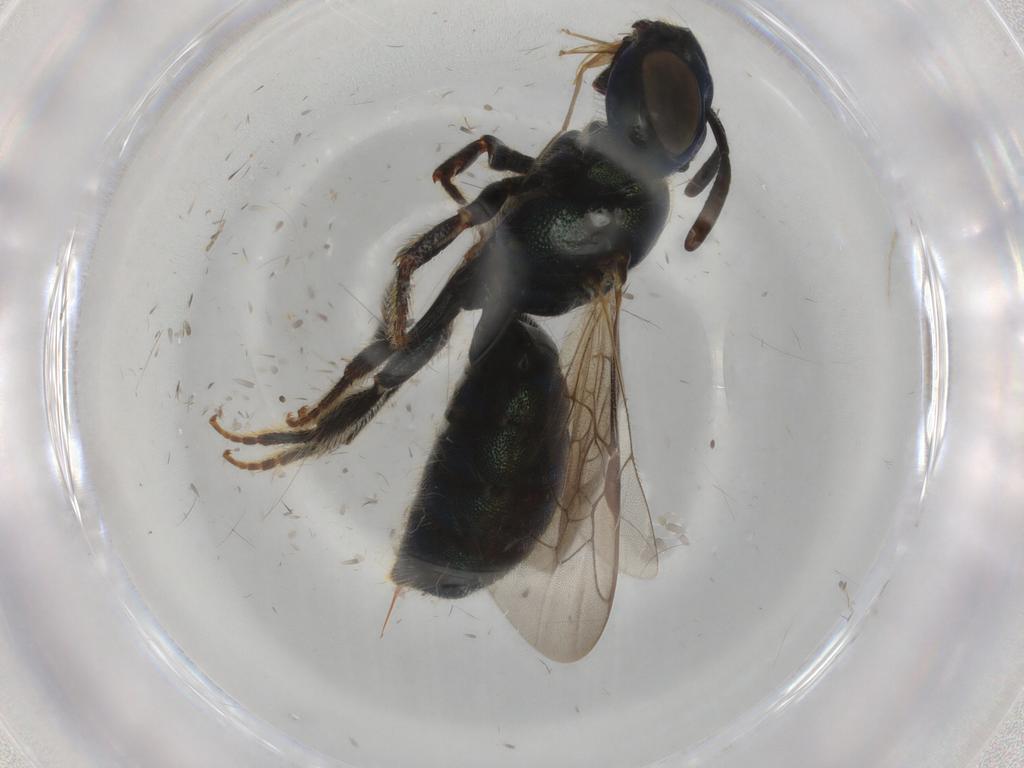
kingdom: Animalia
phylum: Arthropoda
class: Insecta
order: Hymenoptera
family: Apidae
